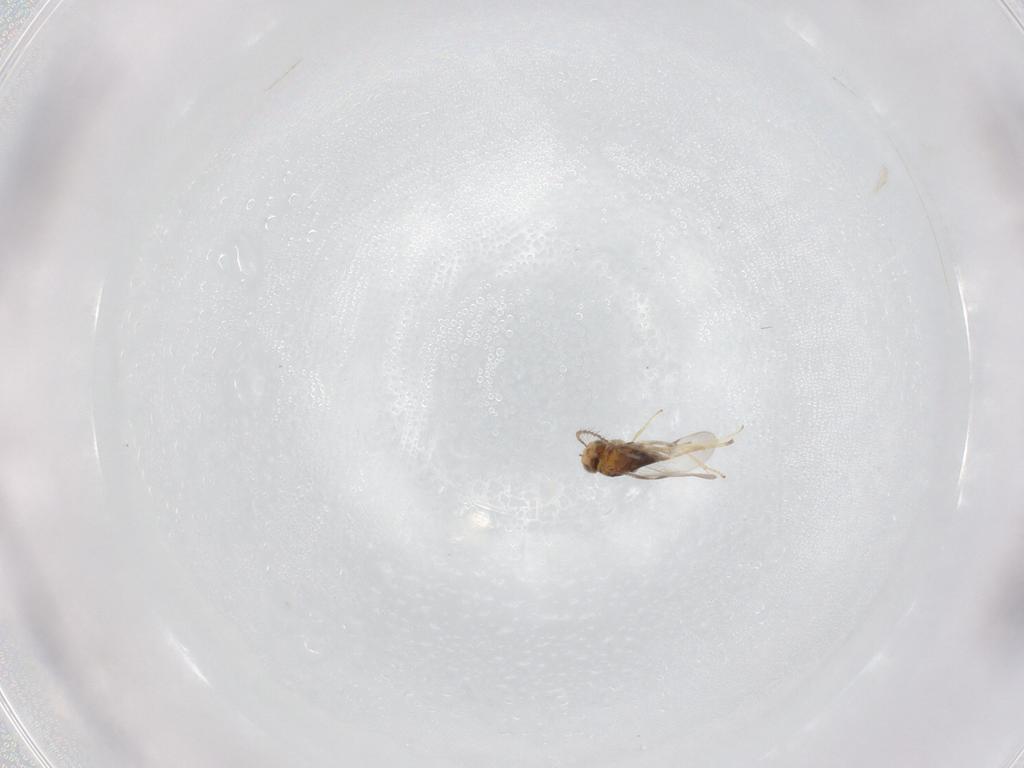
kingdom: Animalia
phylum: Arthropoda
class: Insecta
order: Hymenoptera
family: Encyrtidae
